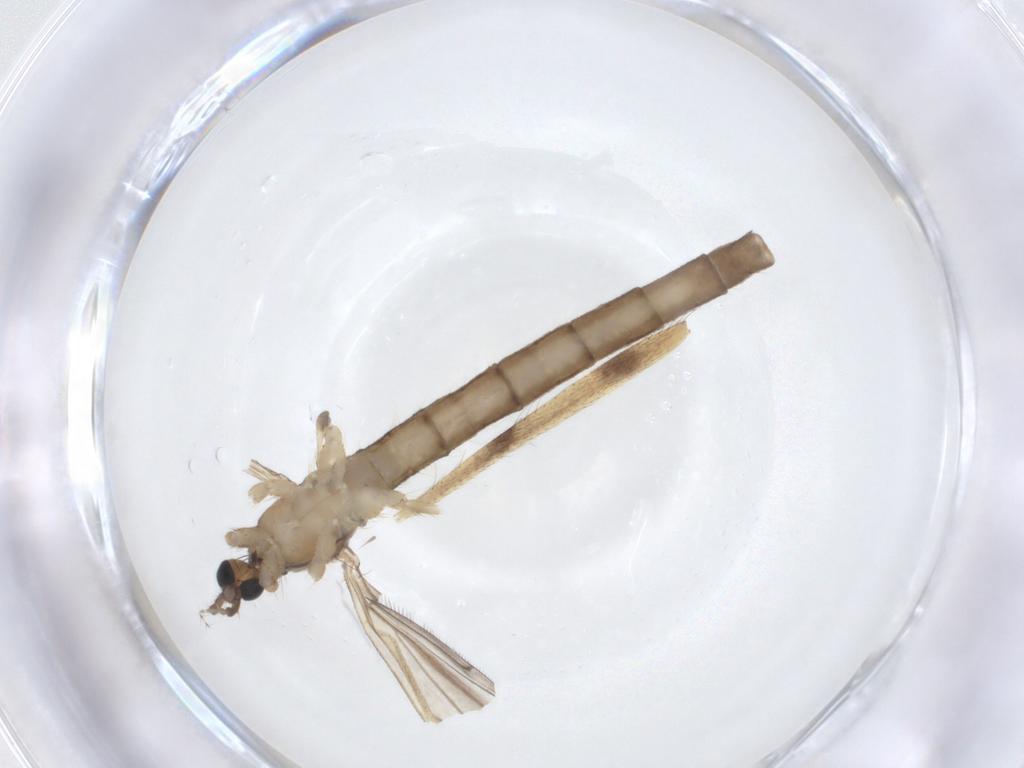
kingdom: Animalia
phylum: Arthropoda
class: Insecta
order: Diptera
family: Limoniidae
